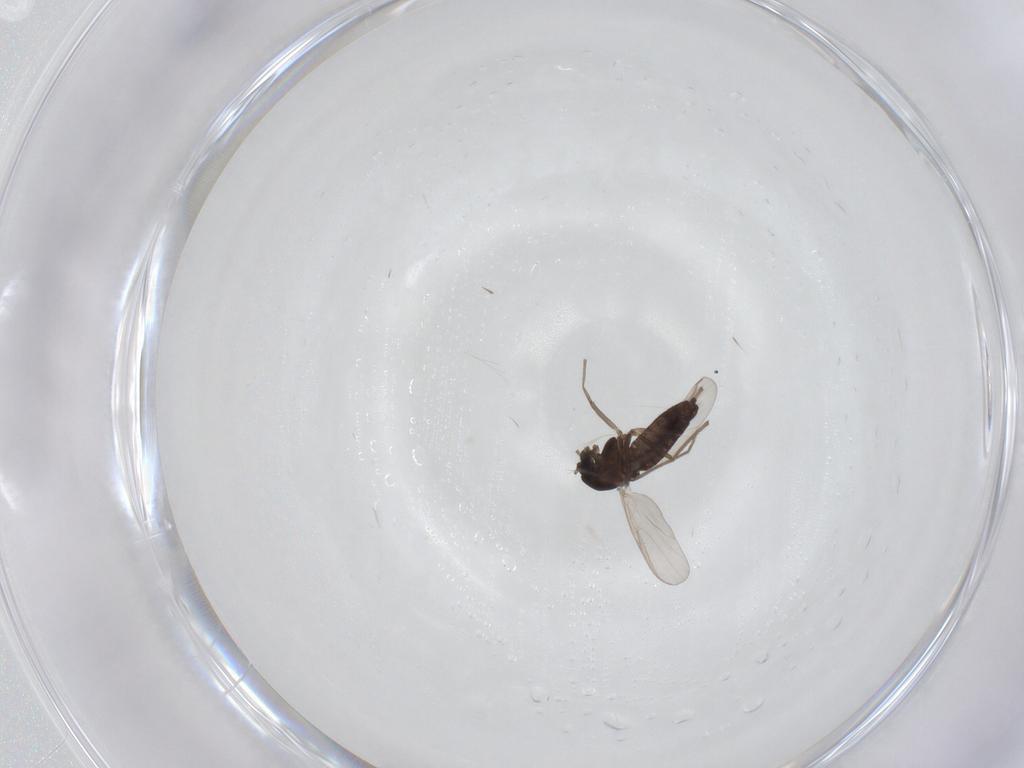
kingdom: Animalia
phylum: Arthropoda
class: Insecta
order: Diptera
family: Chironomidae
